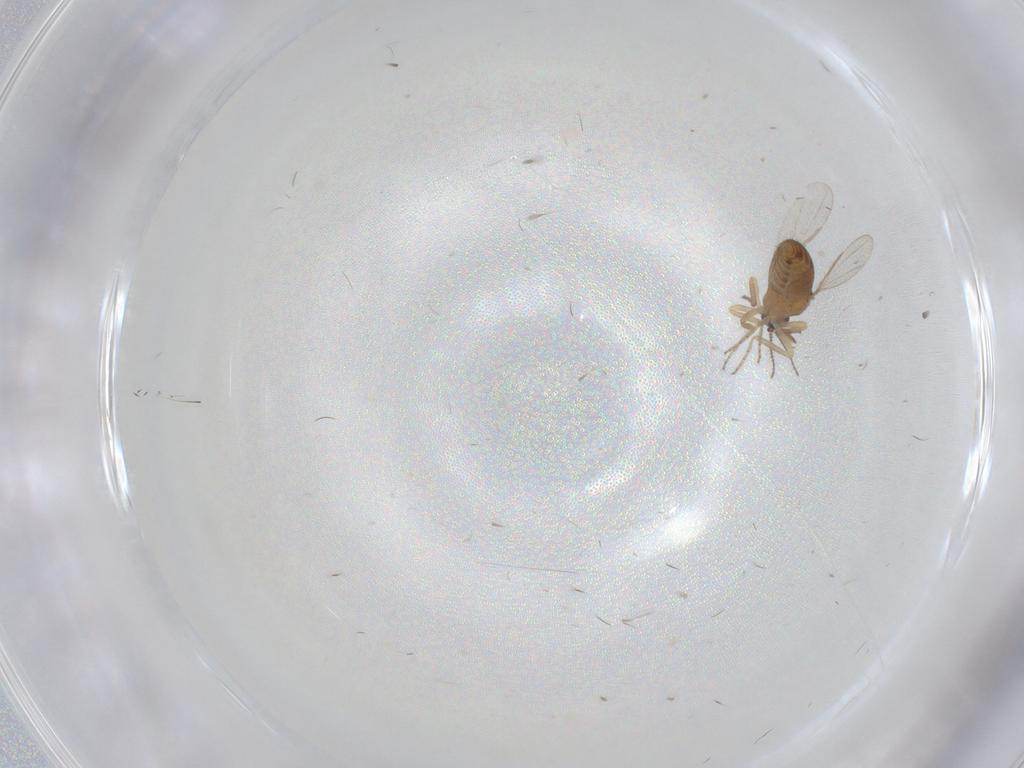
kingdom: Animalia
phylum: Arthropoda
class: Insecta
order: Diptera
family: Ceratopogonidae
